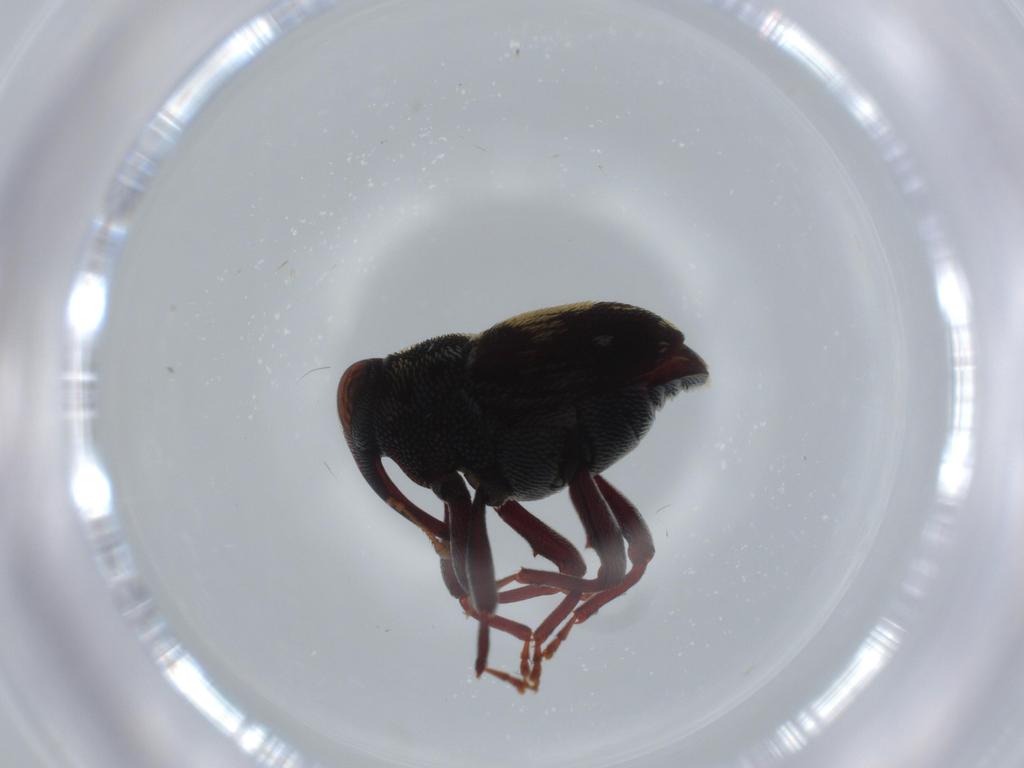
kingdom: Animalia
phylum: Arthropoda
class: Insecta
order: Coleoptera
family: Curculionidae
